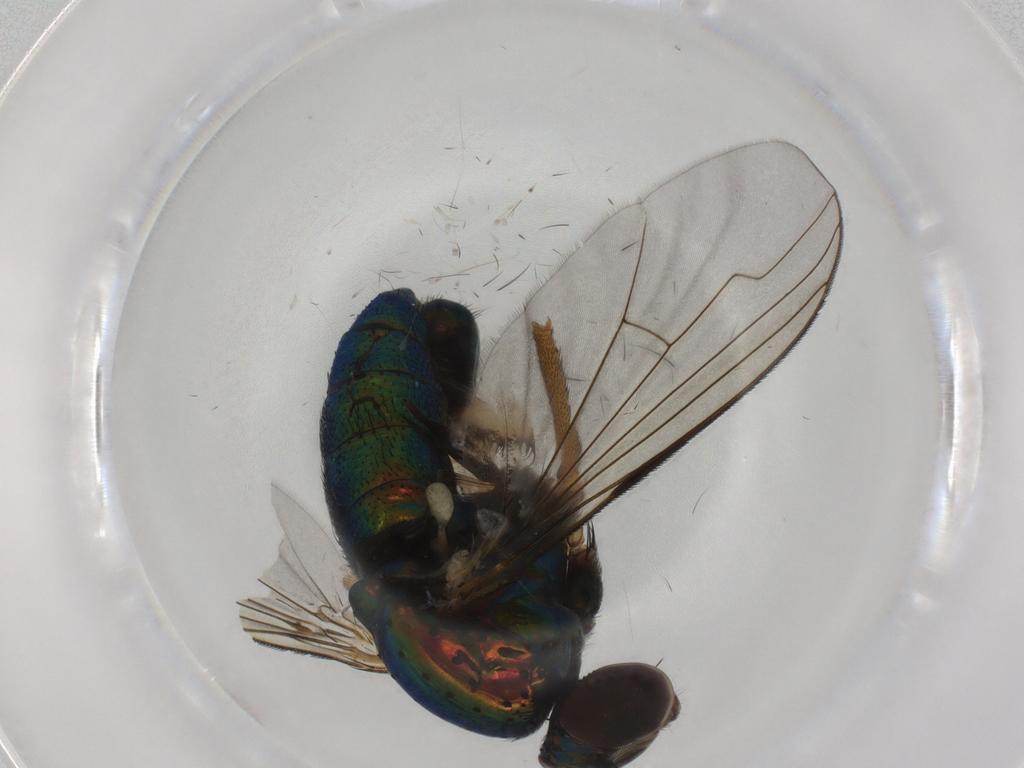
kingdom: Animalia
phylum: Arthropoda
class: Insecta
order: Diptera
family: Dolichopodidae
